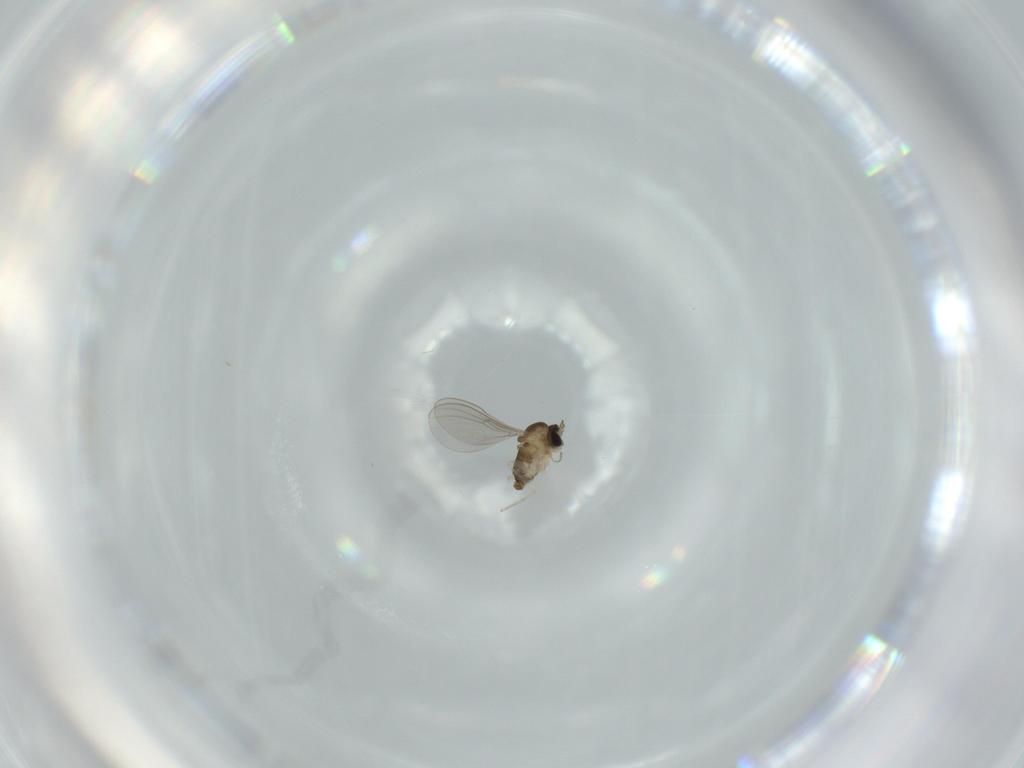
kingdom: Animalia
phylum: Arthropoda
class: Insecta
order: Diptera
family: Cecidomyiidae
